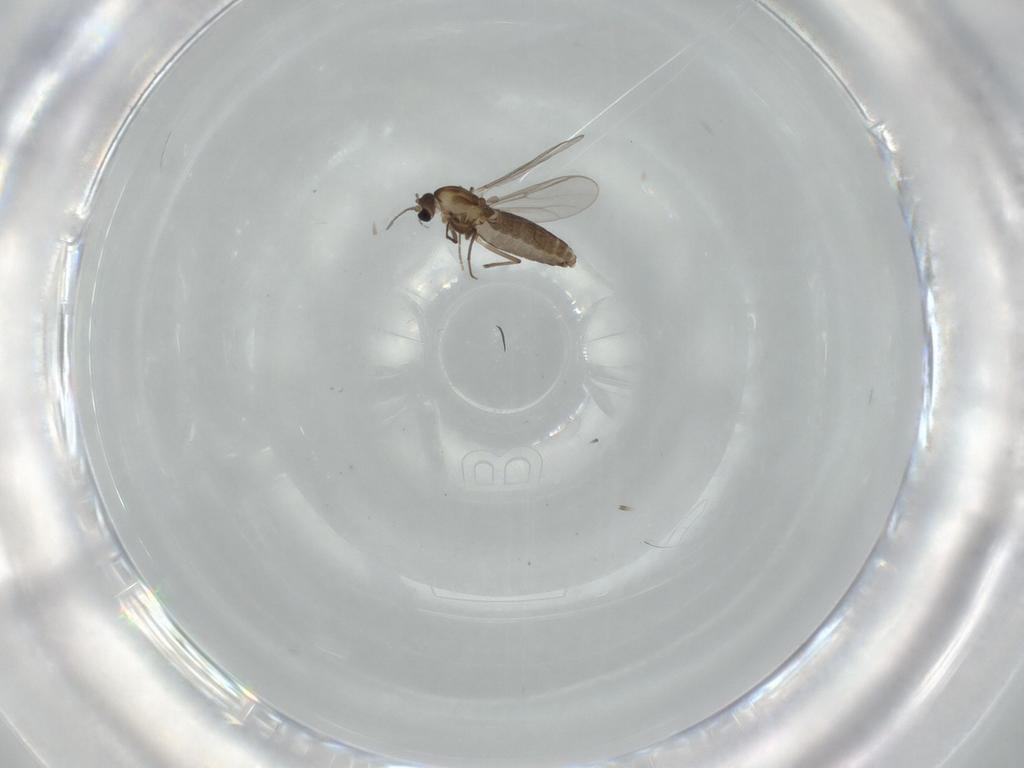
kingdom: Animalia
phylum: Arthropoda
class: Insecta
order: Diptera
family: Chironomidae
